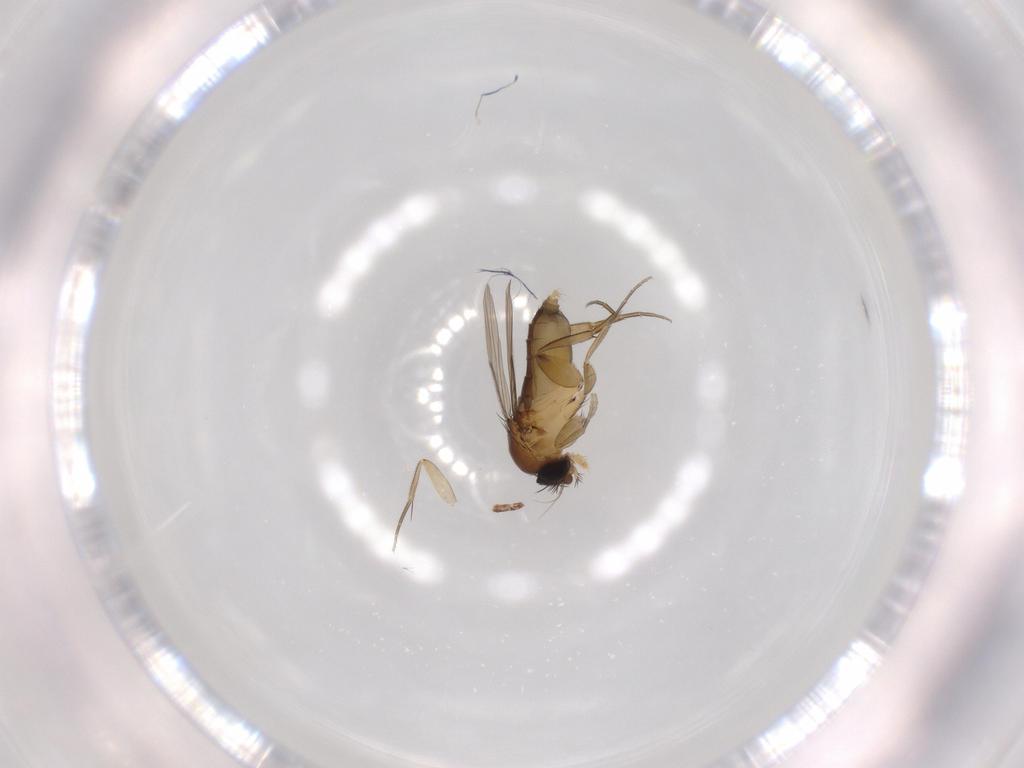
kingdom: Animalia
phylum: Arthropoda
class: Insecta
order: Diptera
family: Phoridae
